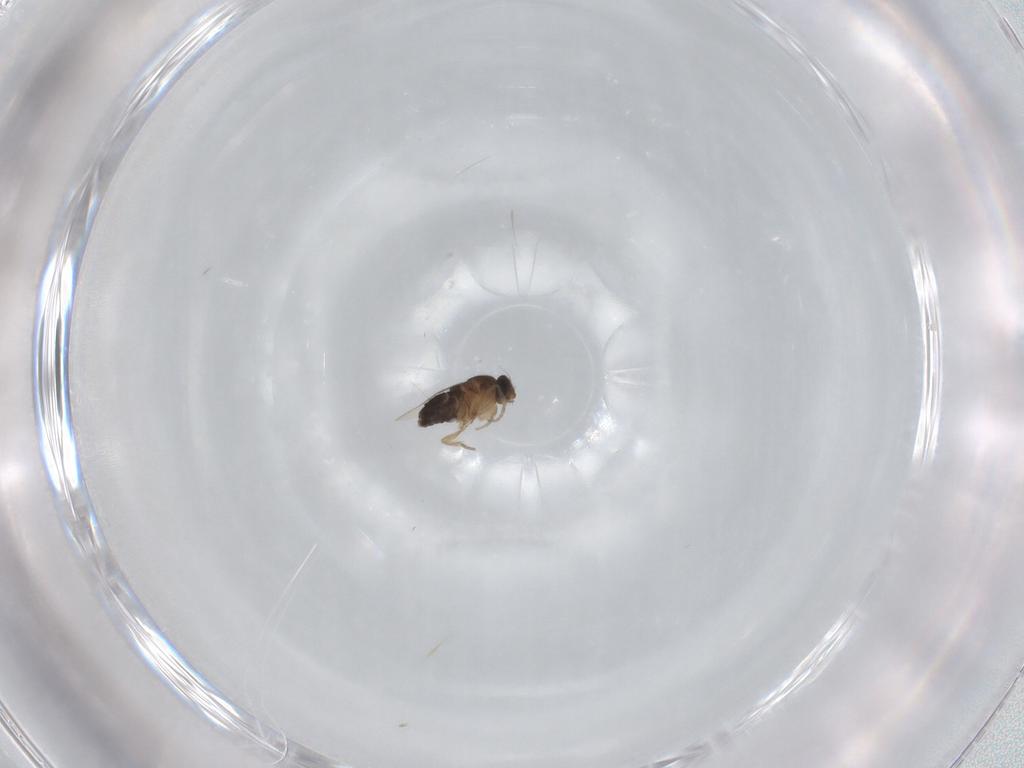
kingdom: Animalia
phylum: Arthropoda
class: Insecta
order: Diptera
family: Phoridae
